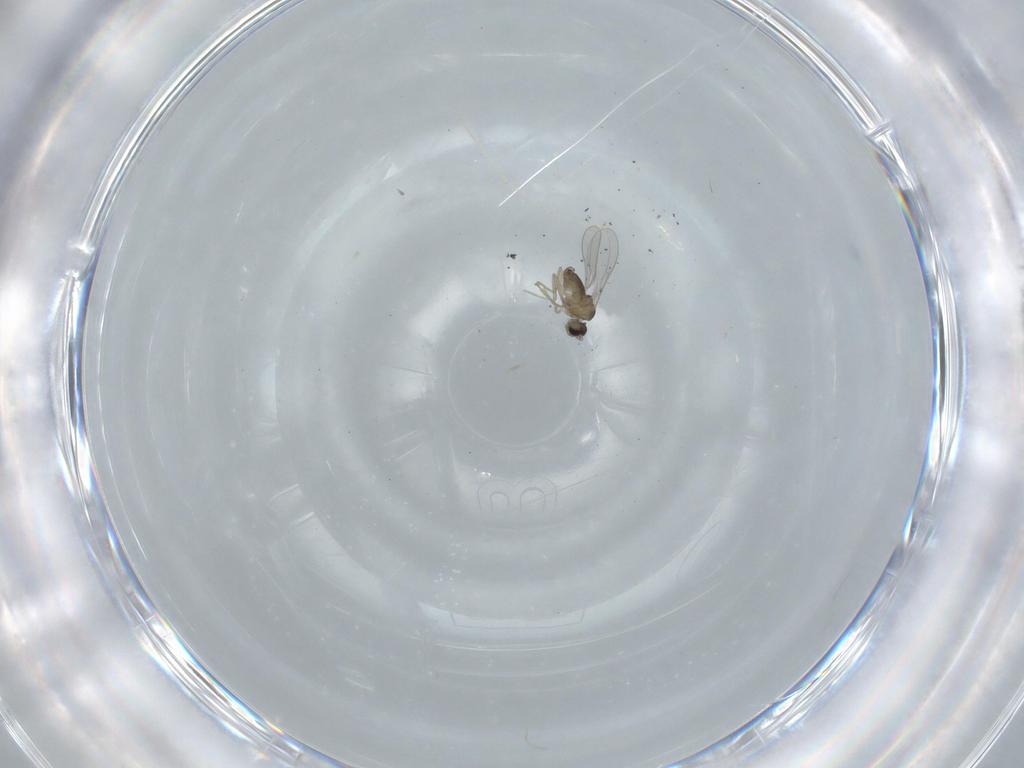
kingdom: Animalia
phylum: Arthropoda
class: Insecta
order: Diptera
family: Cecidomyiidae
